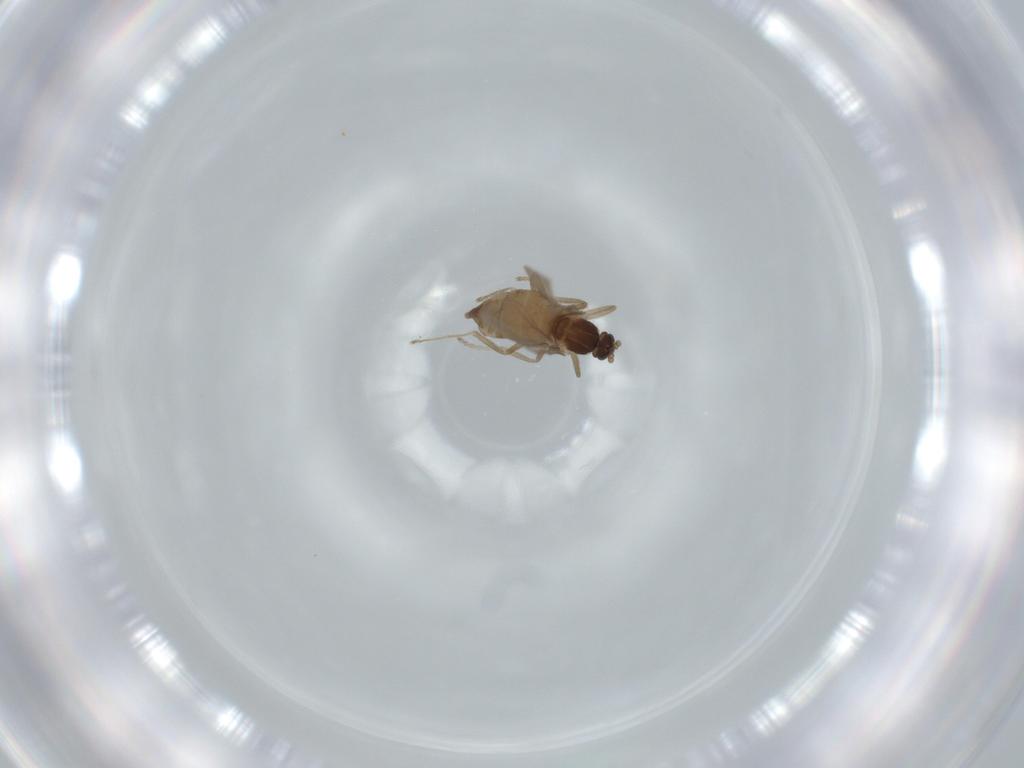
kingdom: Animalia
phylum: Arthropoda
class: Insecta
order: Diptera
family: Cecidomyiidae
